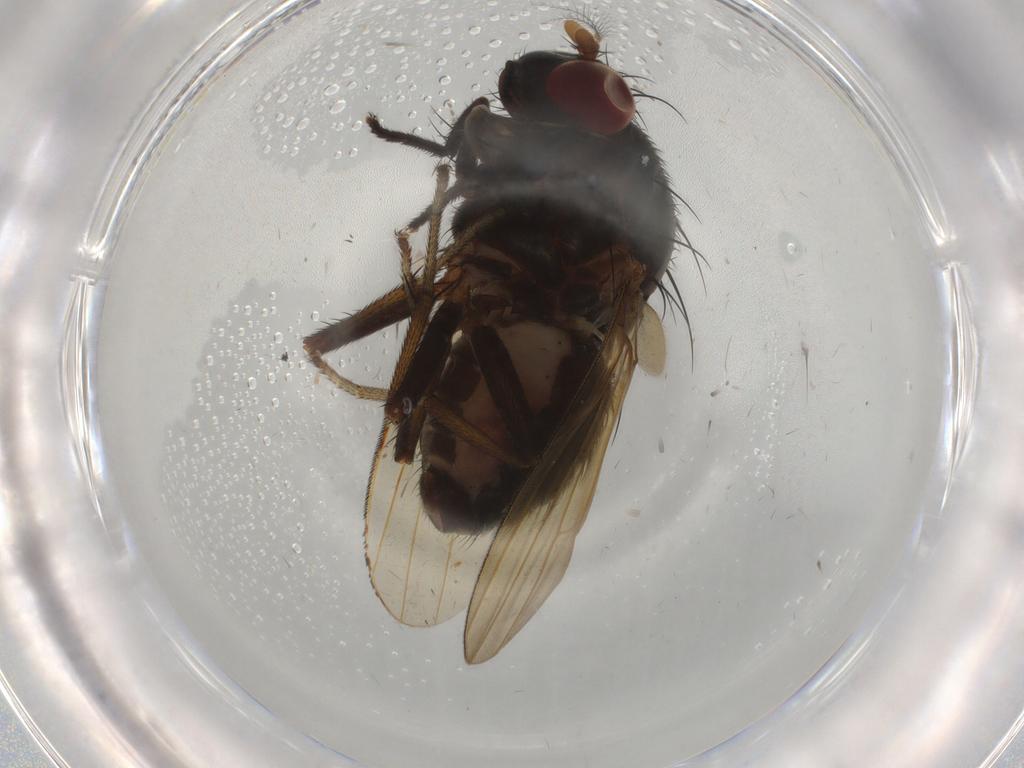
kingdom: Animalia
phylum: Arthropoda
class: Insecta
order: Diptera
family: Phoridae
